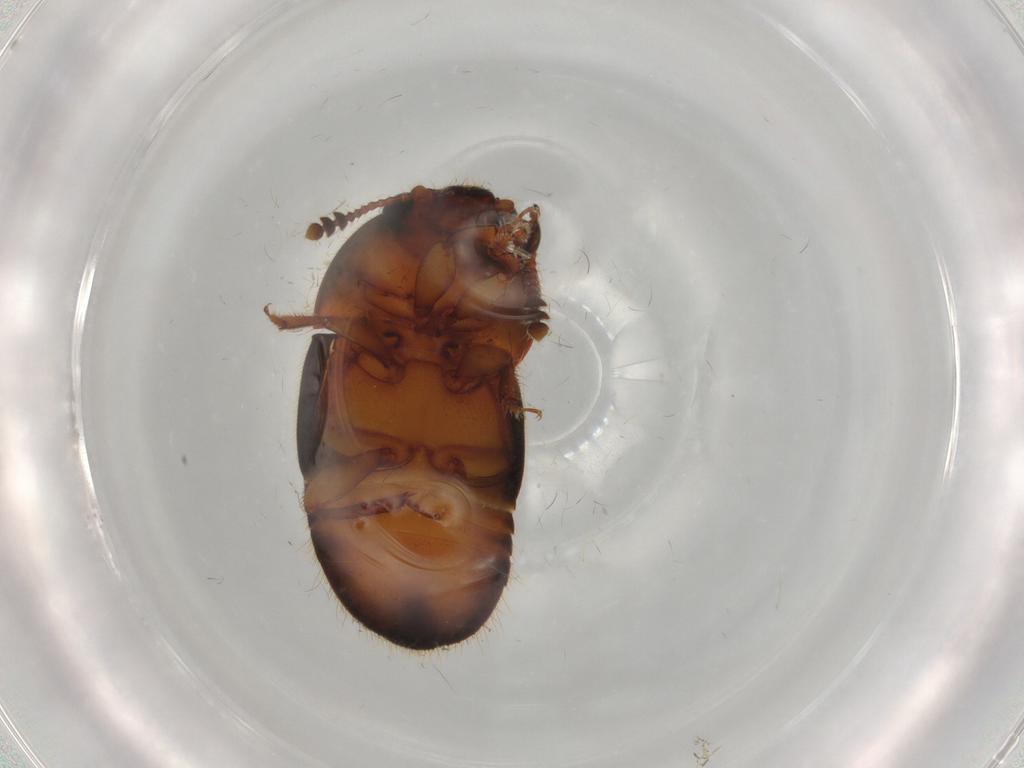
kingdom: Animalia
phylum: Arthropoda
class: Insecta
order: Coleoptera
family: Nitidulidae
